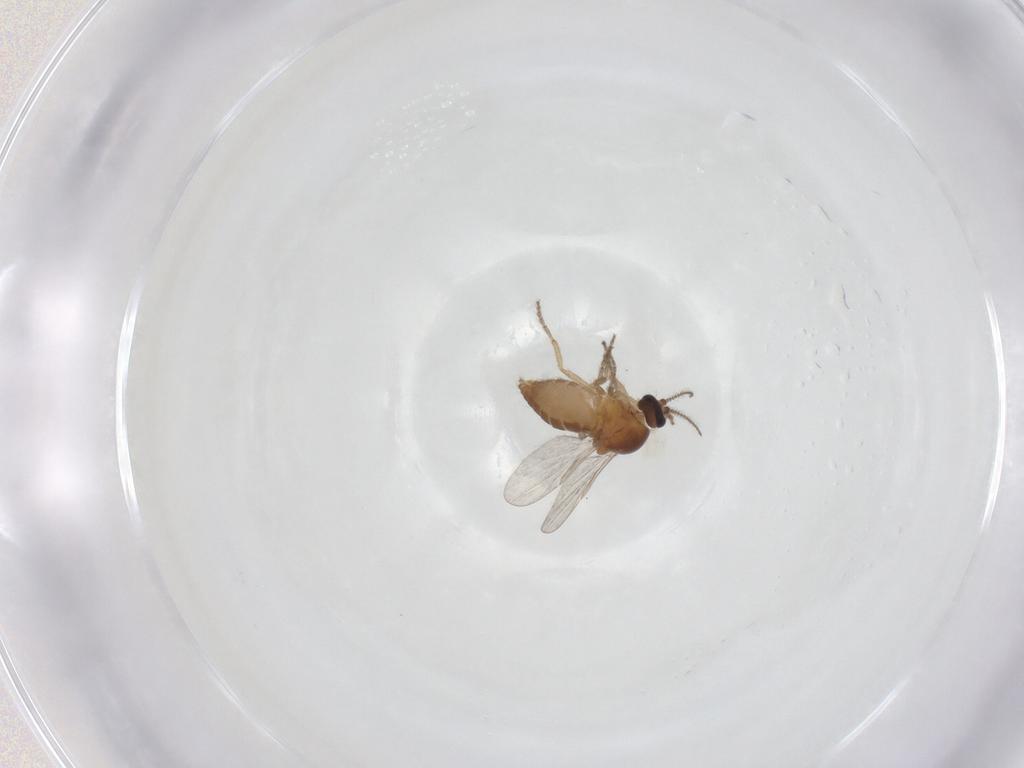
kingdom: Animalia
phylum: Arthropoda
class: Insecta
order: Diptera
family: Ceratopogonidae
